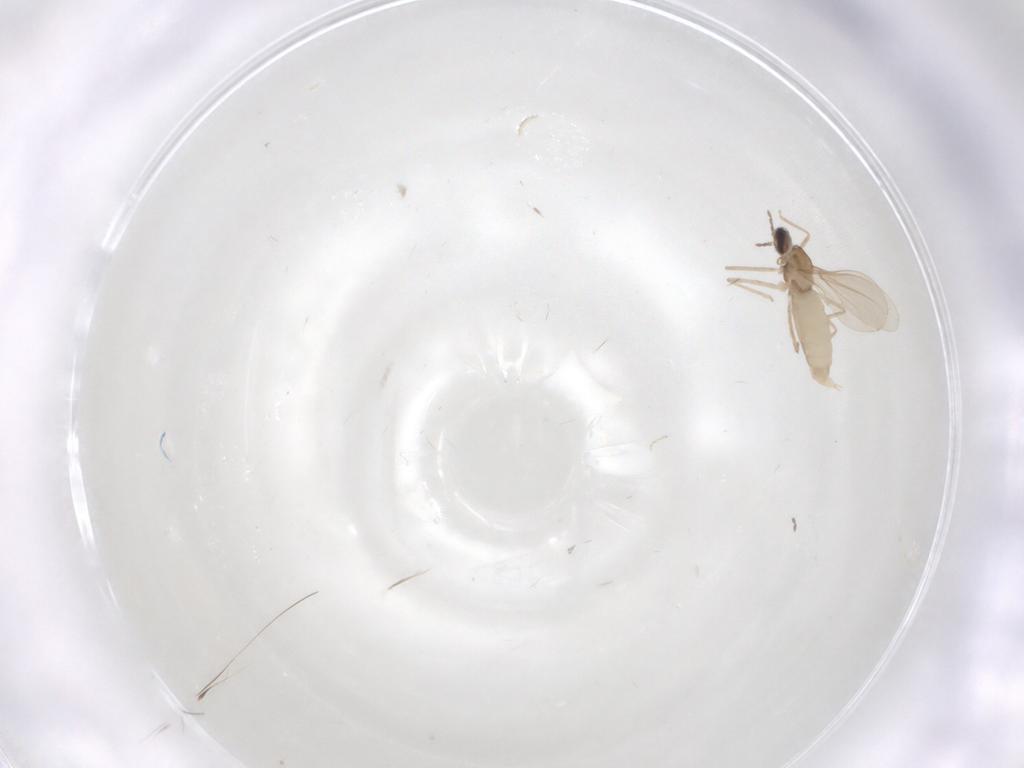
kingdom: Animalia
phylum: Arthropoda
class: Insecta
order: Diptera
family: Cecidomyiidae
